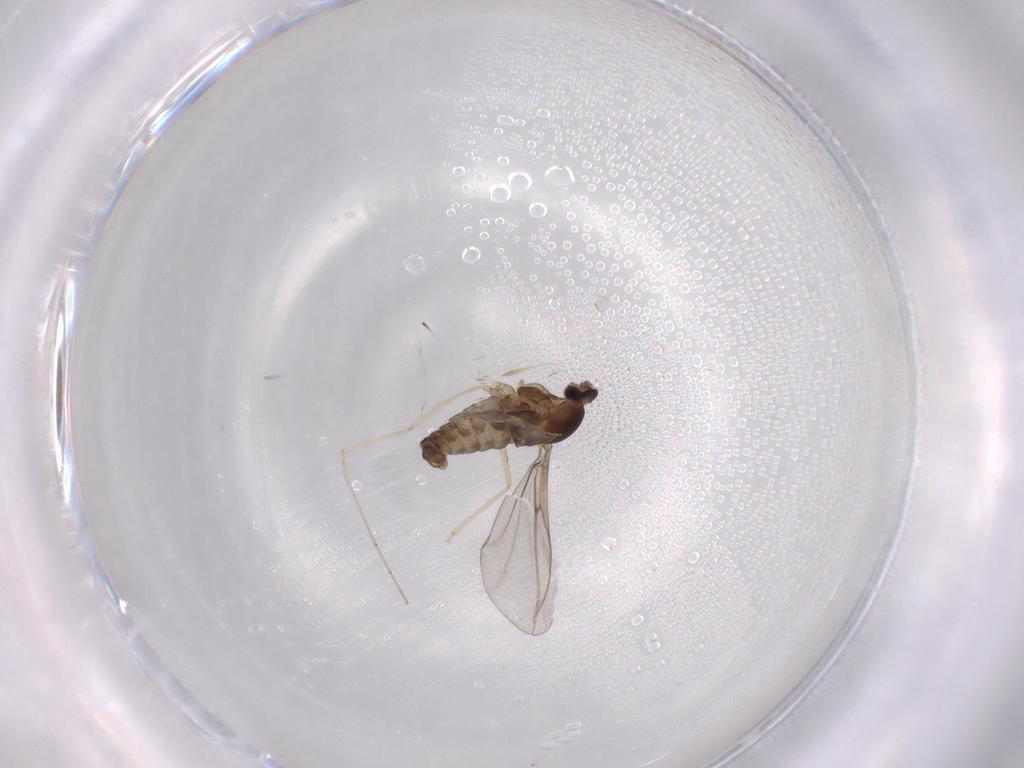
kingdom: Animalia
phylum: Arthropoda
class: Insecta
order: Diptera
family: Cecidomyiidae
